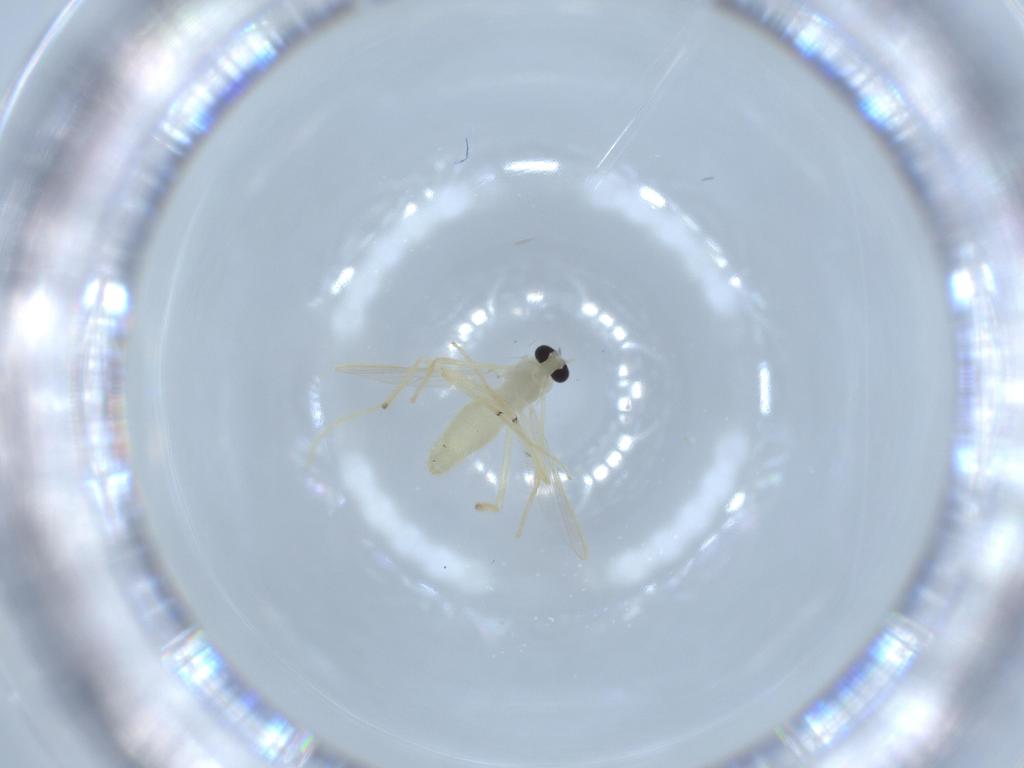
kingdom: Animalia
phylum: Arthropoda
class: Insecta
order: Diptera
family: Chironomidae
